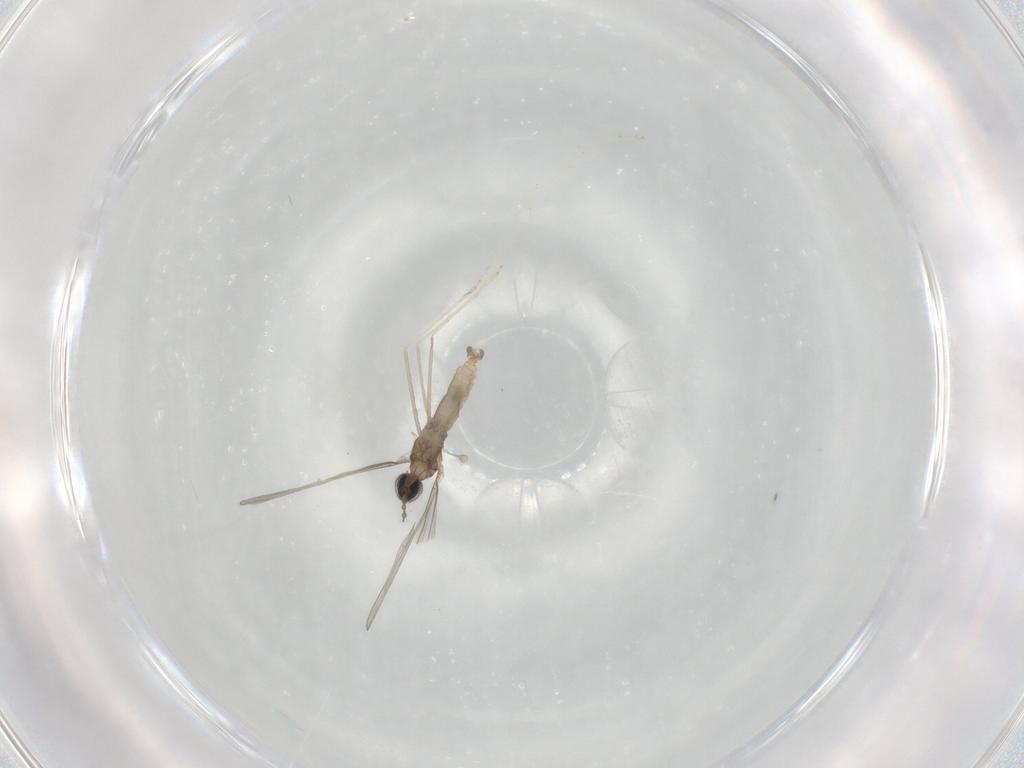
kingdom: Animalia
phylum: Arthropoda
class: Insecta
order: Diptera
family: Cecidomyiidae
